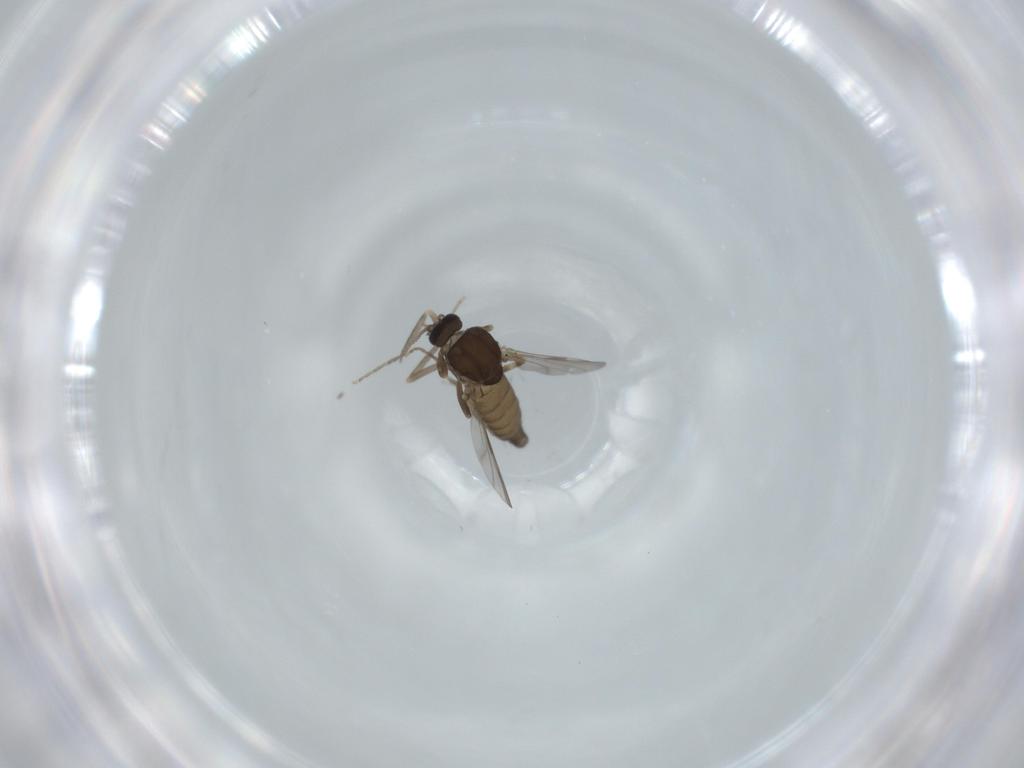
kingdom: Animalia
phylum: Arthropoda
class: Insecta
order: Diptera
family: Ceratopogonidae
